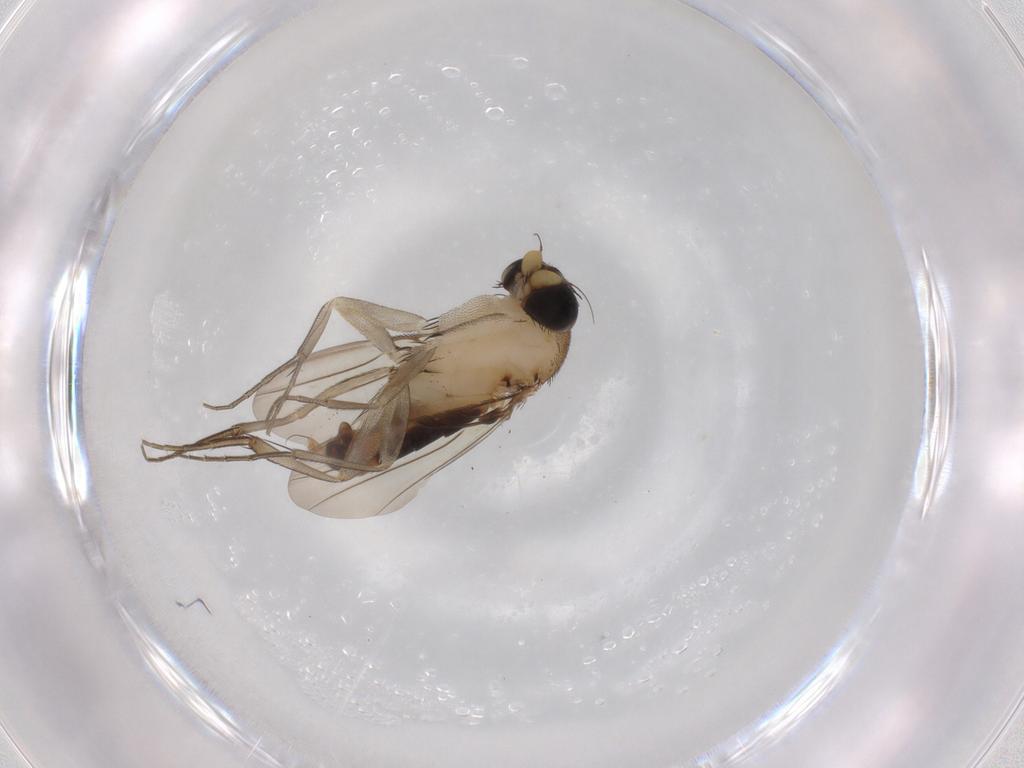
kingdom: Animalia
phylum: Arthropoda
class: Insecta
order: Diptera
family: Phoridae
